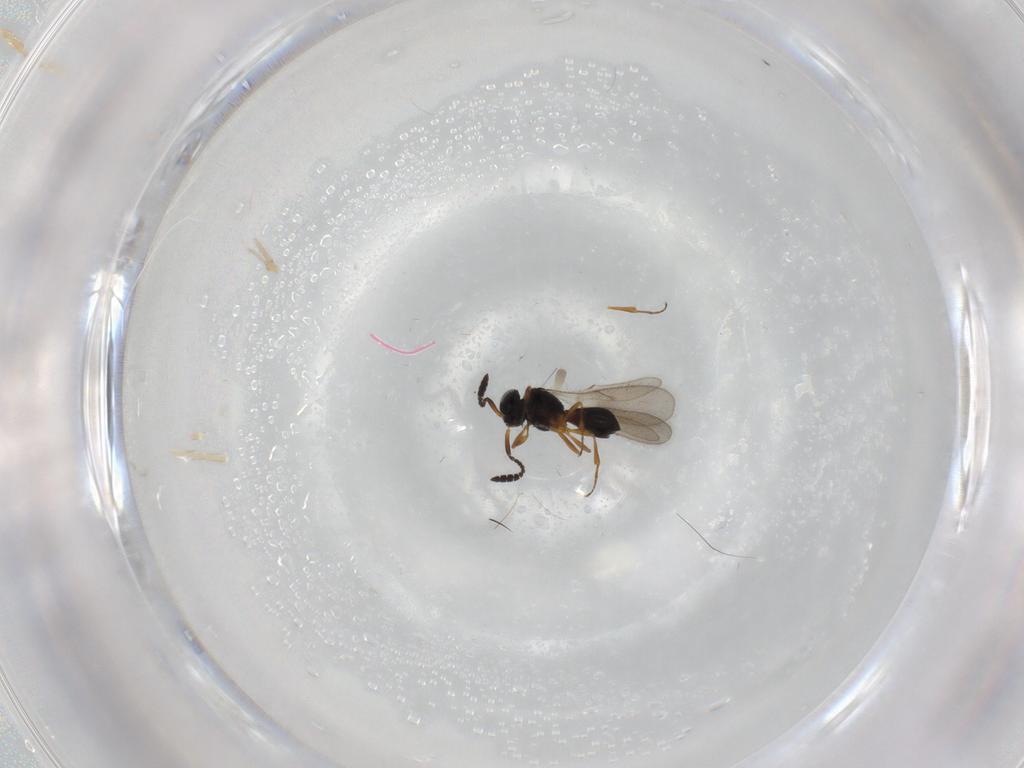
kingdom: Animalia
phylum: Arthropoda
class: Insecta
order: Hymenoptera
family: Scelionidae
